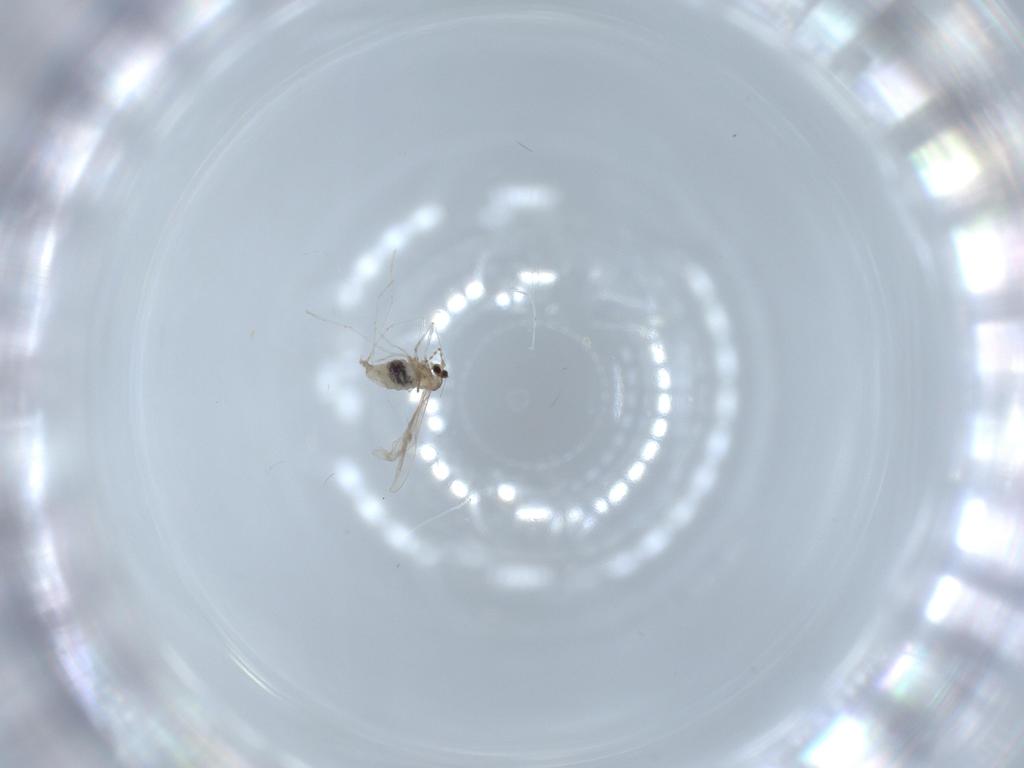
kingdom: Animalia
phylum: Arthropoda
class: Insecta
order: Diptera
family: Cecidomyiidae
